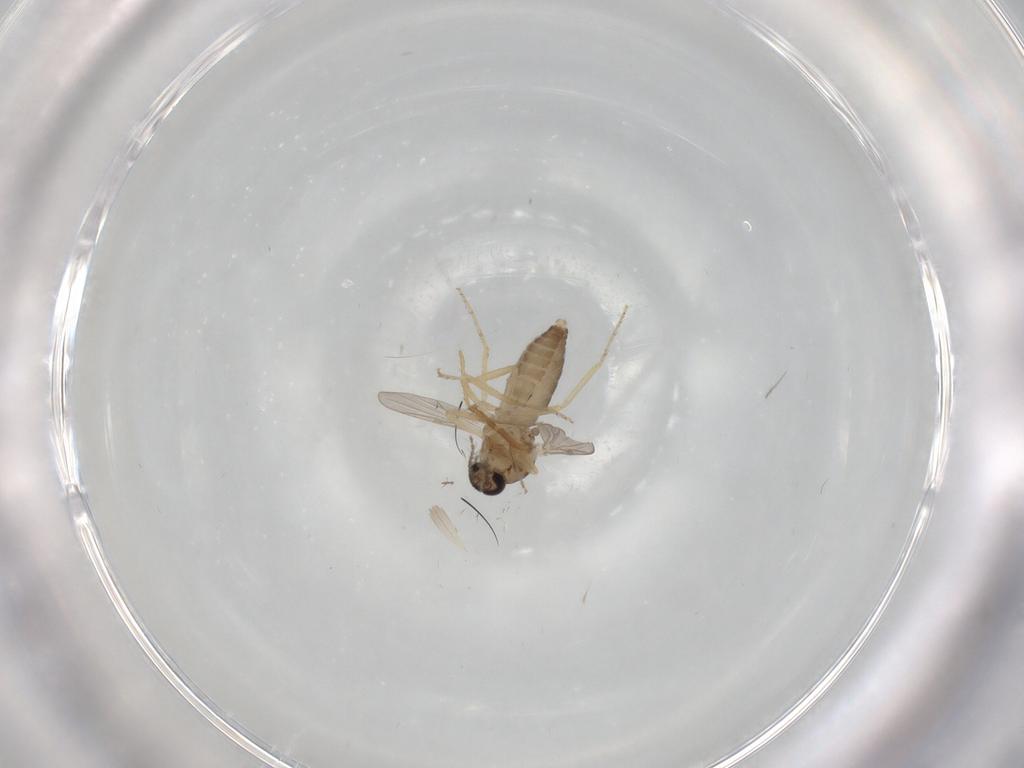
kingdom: Animalia
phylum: Arthropoda
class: Insecta
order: Diptera
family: Ceratopogonidae
